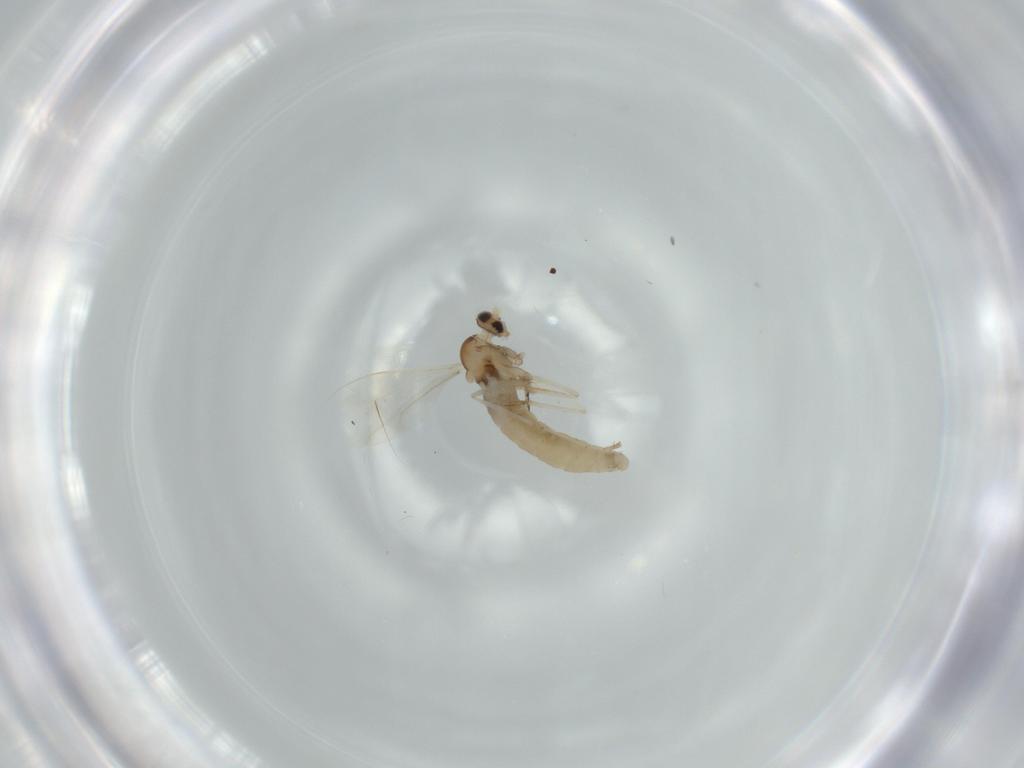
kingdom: Animalia
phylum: Arthropoda
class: Insecta
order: Diptera
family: Cecidomyiidae
